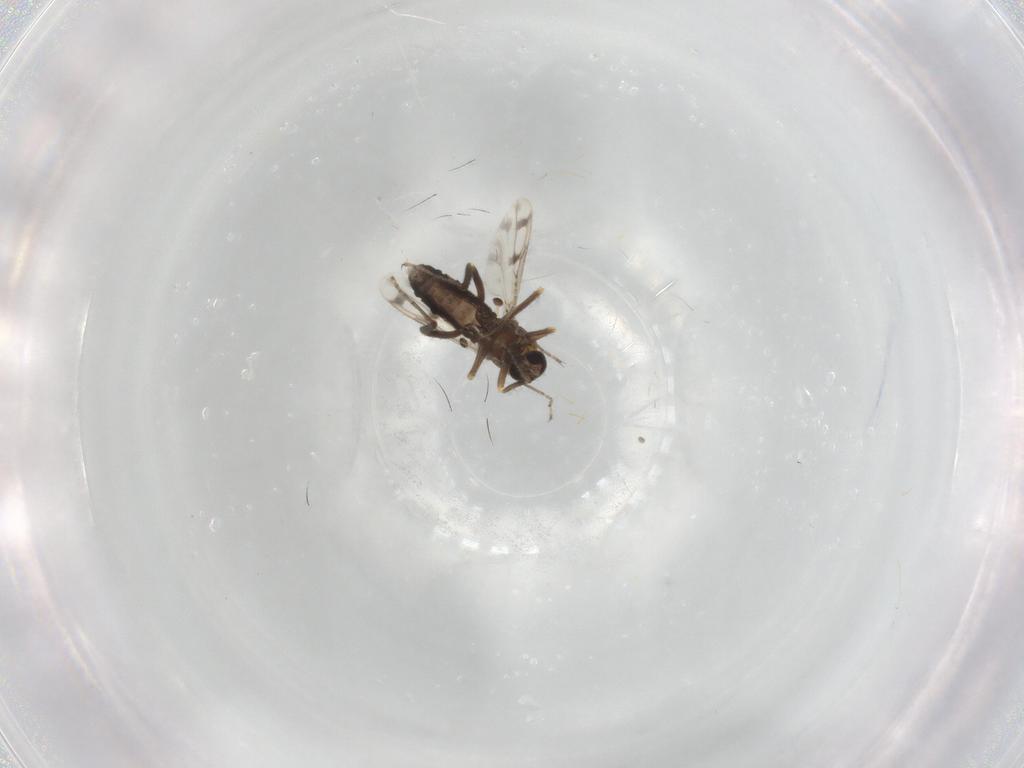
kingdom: Animalia
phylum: Arthropoda
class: Insecta
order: Diptera
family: Ceratopogonidae
